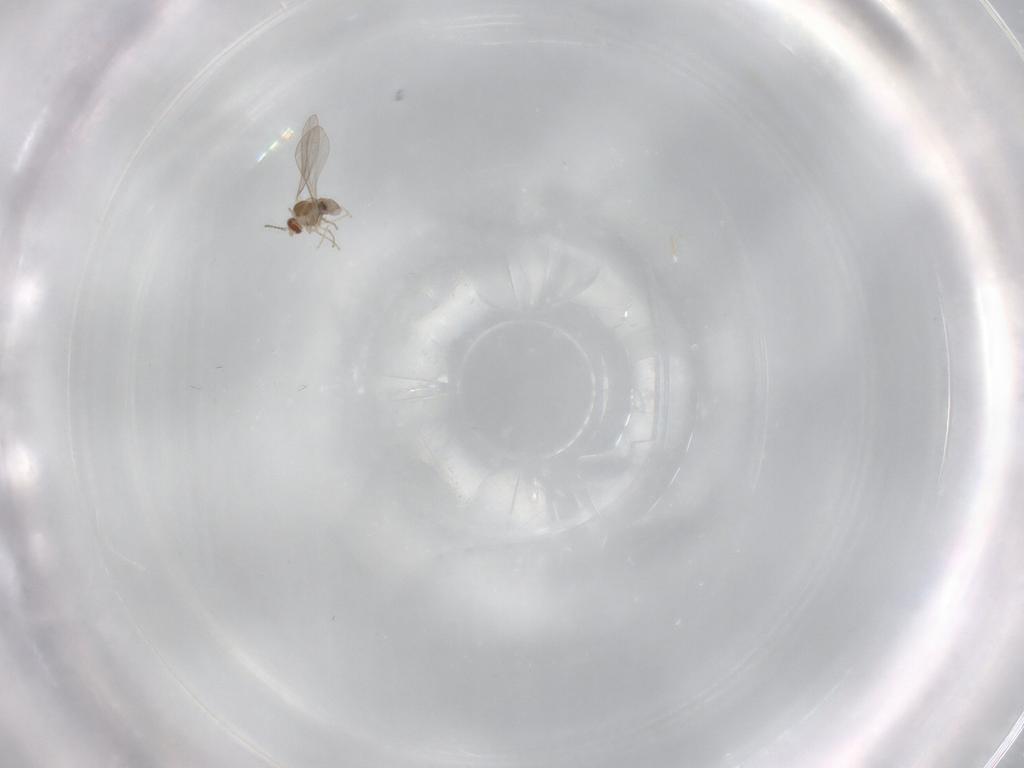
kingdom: Animalia
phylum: Arthropoda
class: Insecta
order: Diptera
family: Cecidomyiidae
